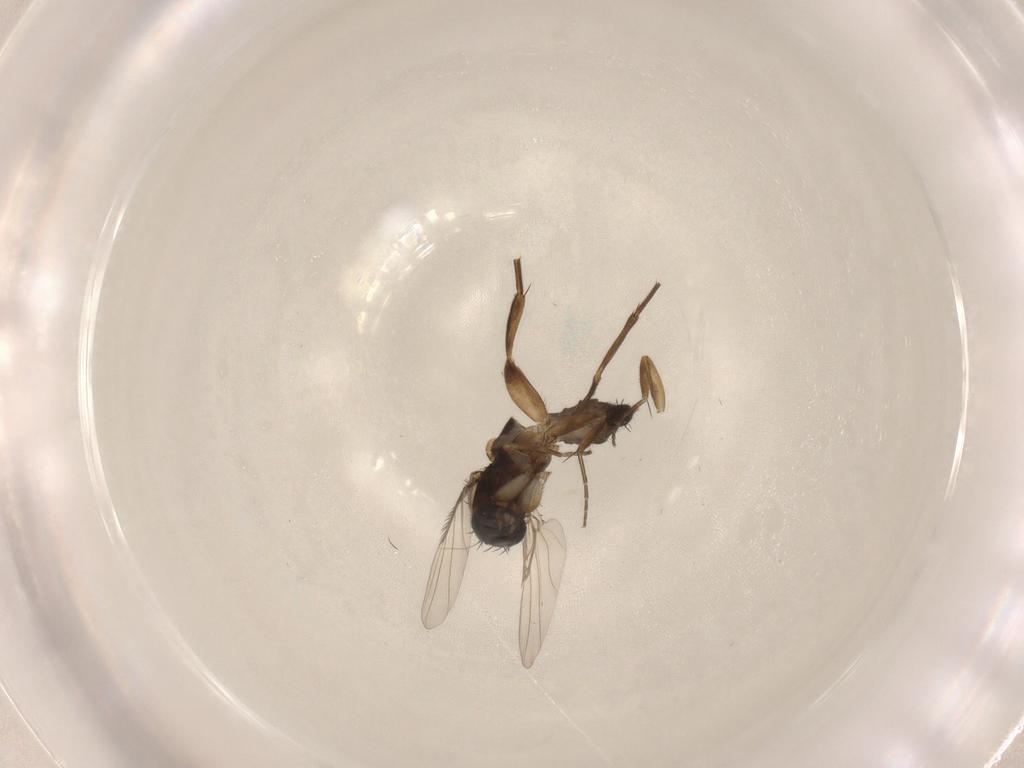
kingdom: Animalia
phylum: Arthropoda
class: Insecta
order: Diptera
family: Phoridae
